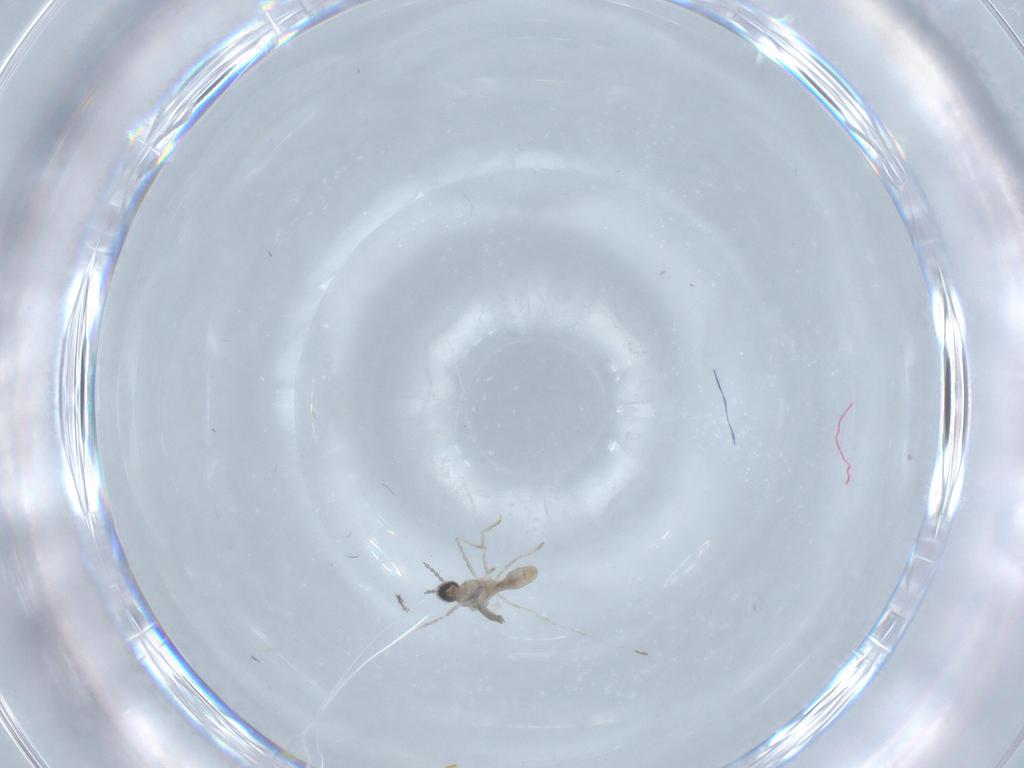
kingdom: Animalia
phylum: Arthropoda
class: Insecta
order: Diptera
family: Cecidomyiidae
